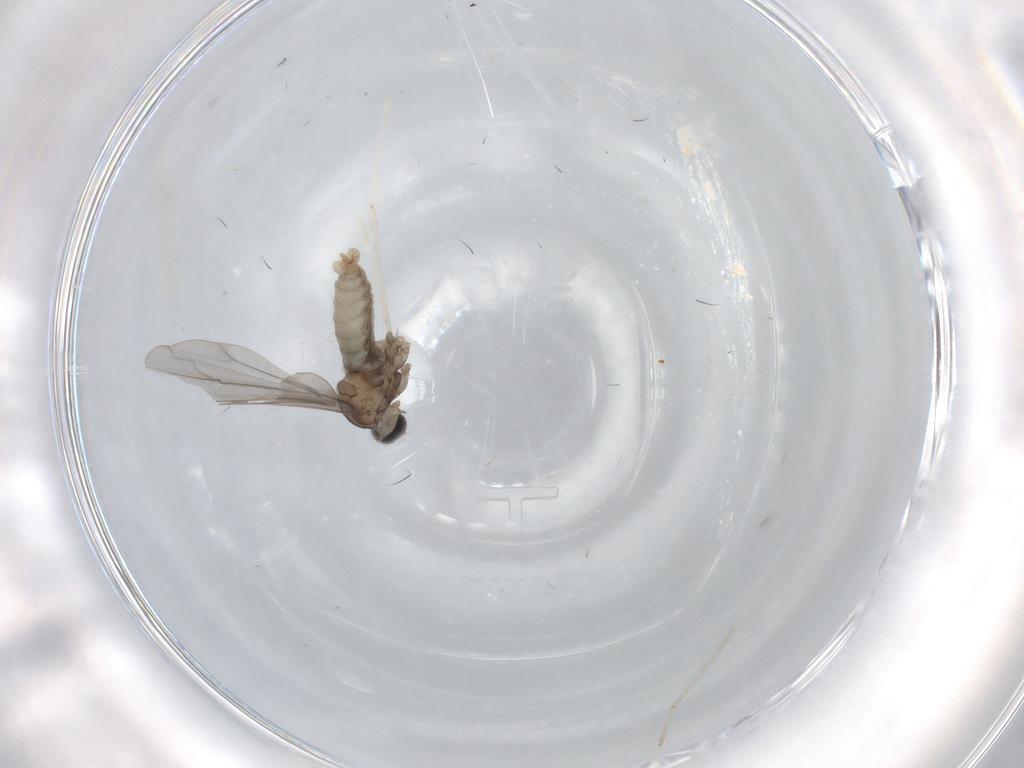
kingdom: Animalia
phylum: Arthropoda
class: Insecta
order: Diptera
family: Cecidomyiidae
